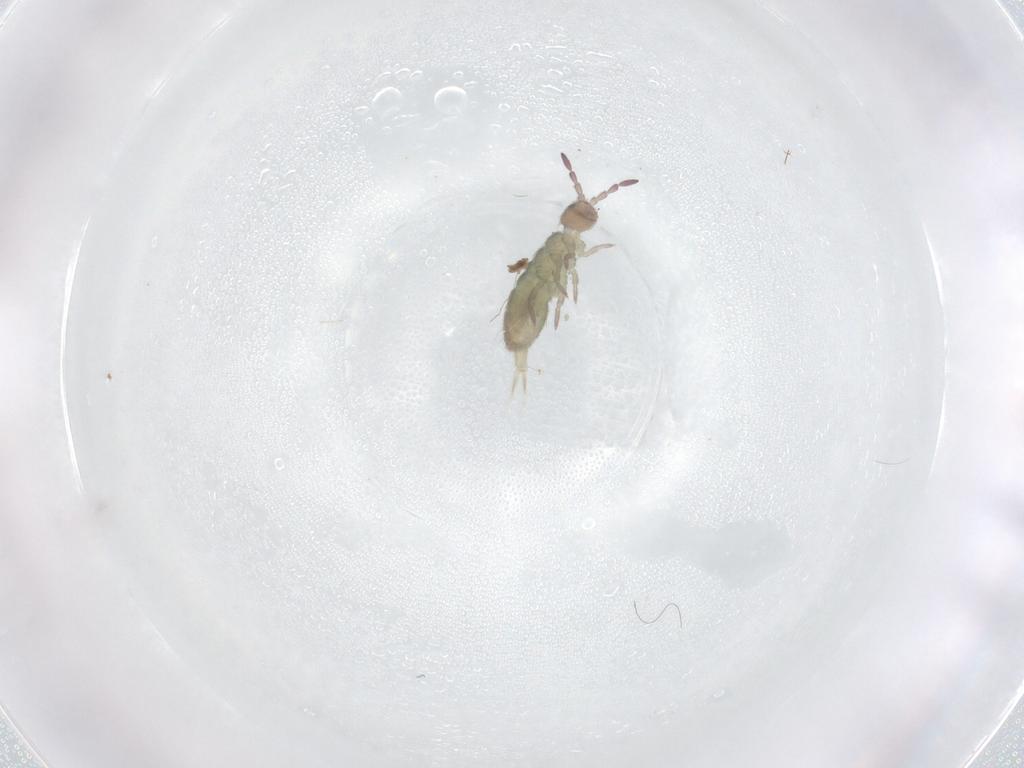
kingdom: Animalia
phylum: Arthropoda
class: Collembola
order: Entomobryomorpha
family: Isotomidae
